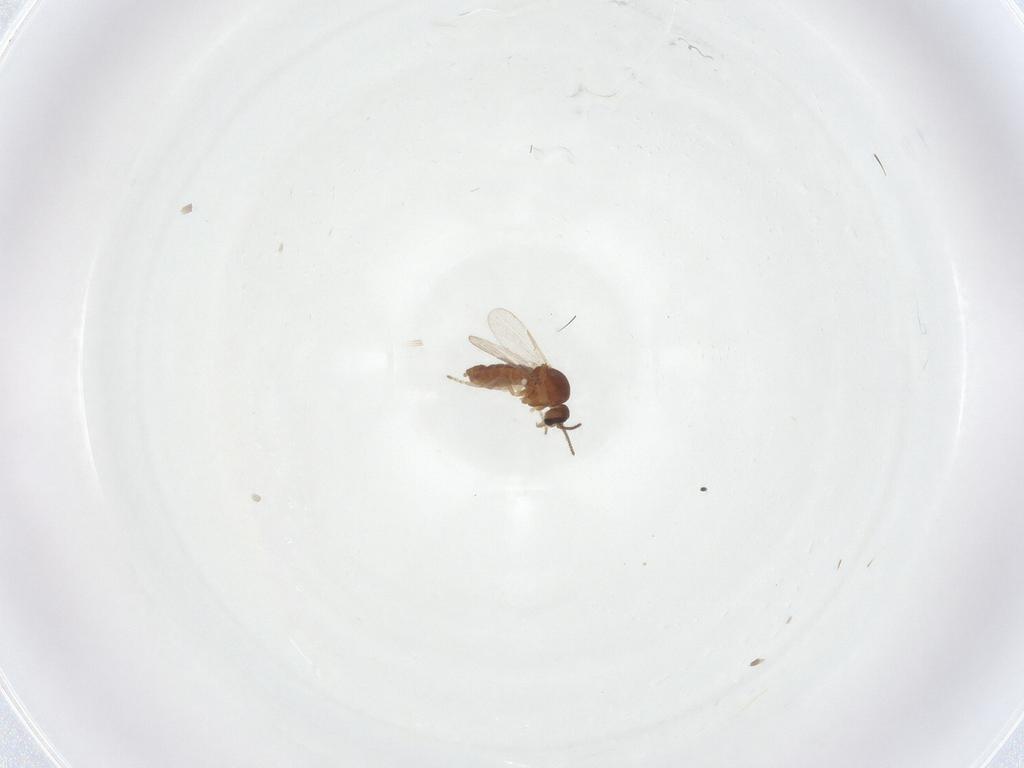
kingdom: Animalia
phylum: Arthropoda
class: Insecta
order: Diptera
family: Ceratopogonidae
